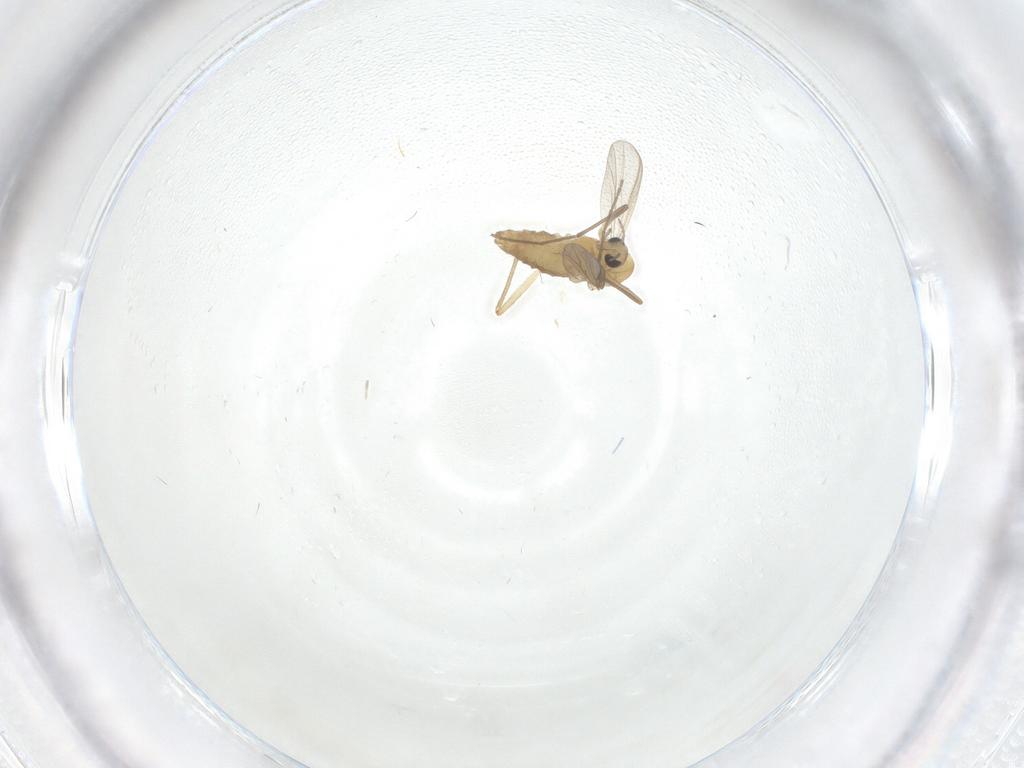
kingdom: Animalia
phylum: Arthropoda
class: Insecta
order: Diptera
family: Chironomidae
